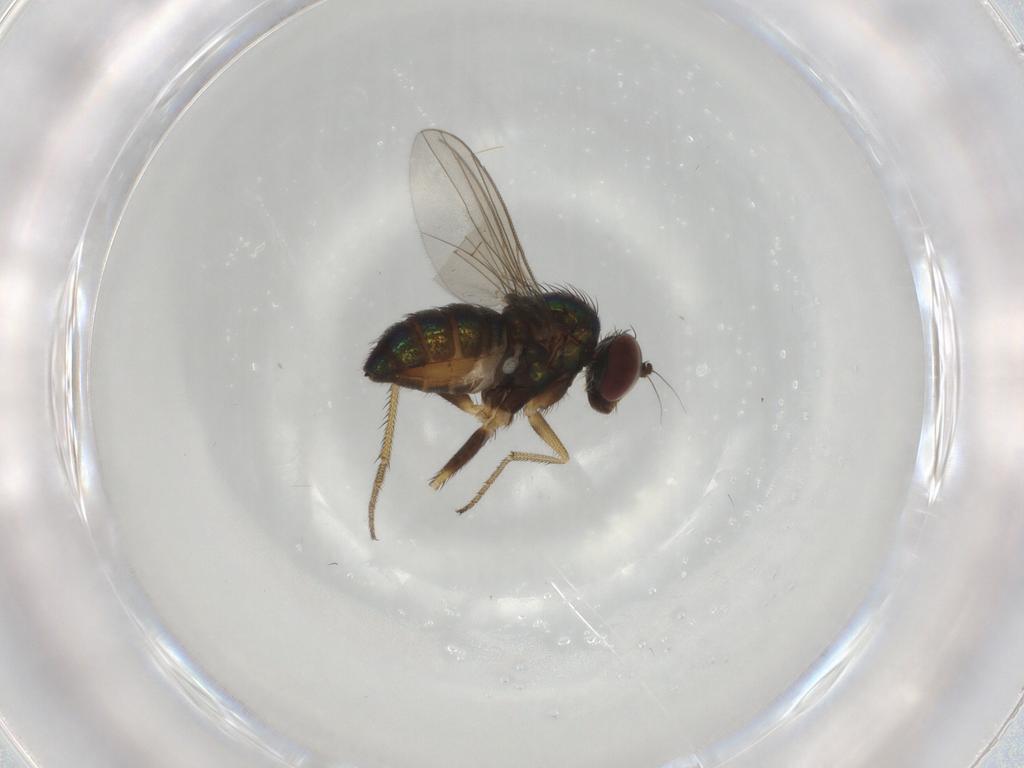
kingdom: Animalia
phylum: Arthropoda
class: Insecta
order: Diptera
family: Dolichopodidae
